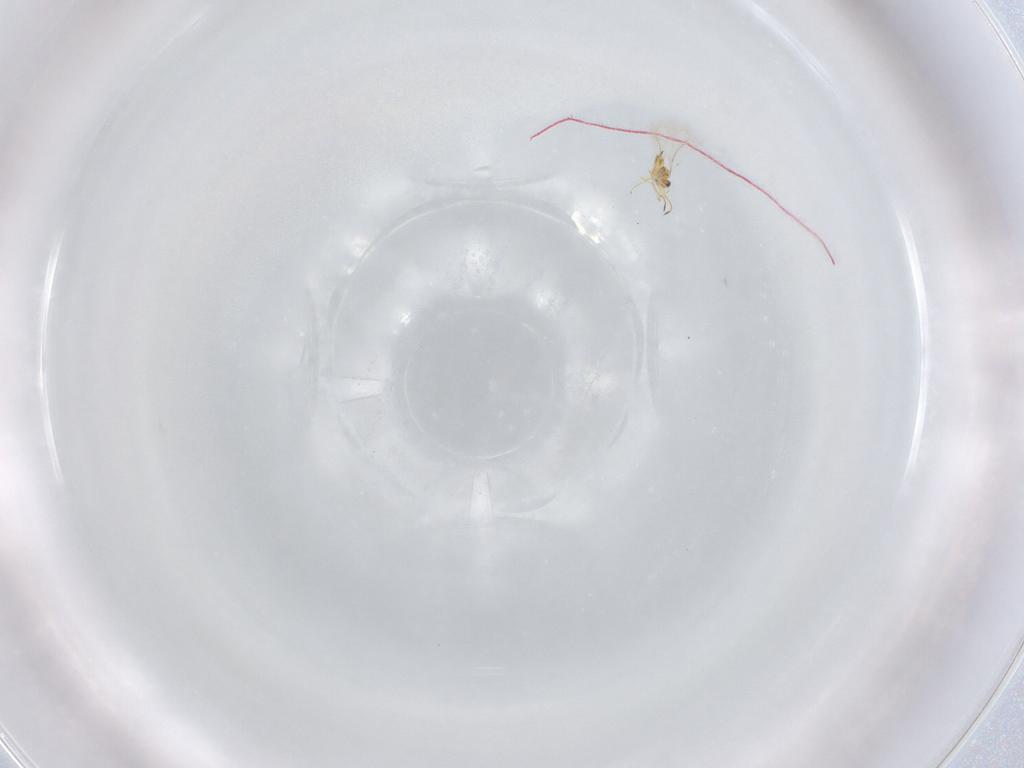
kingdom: Animalia
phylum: Arthropoda
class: Insecta
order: Hymenoptera
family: Mymaridae
